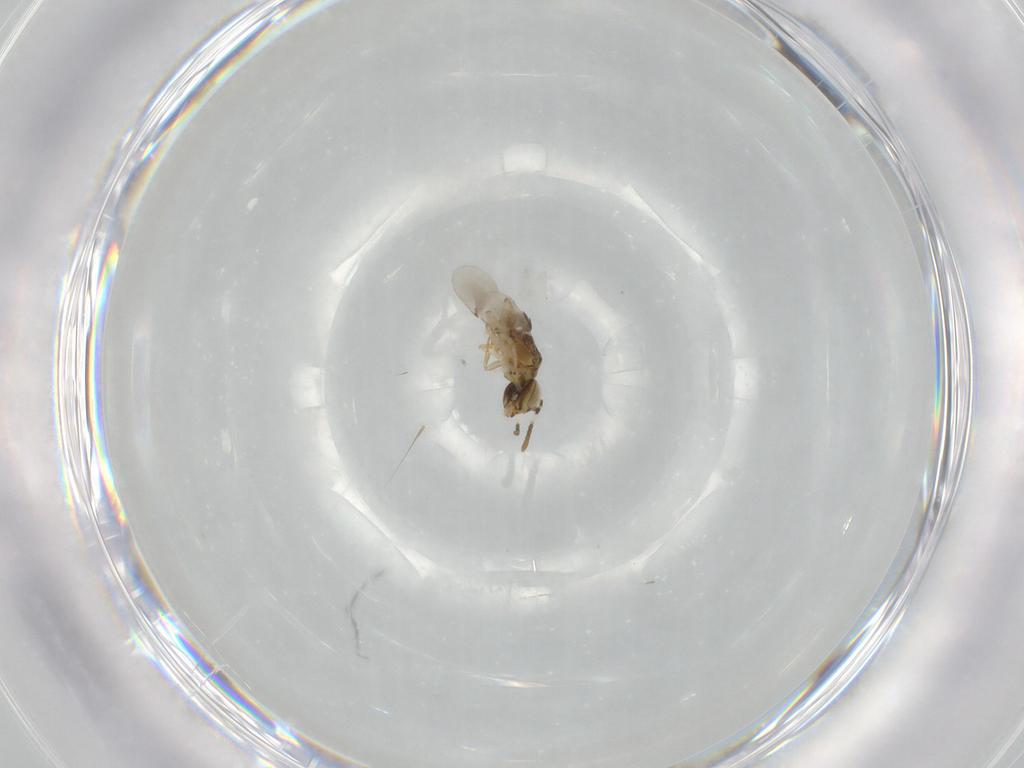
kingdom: Animalia
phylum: Arthropoda
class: Insecta
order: Hymenoptera
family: Encyrtidae
